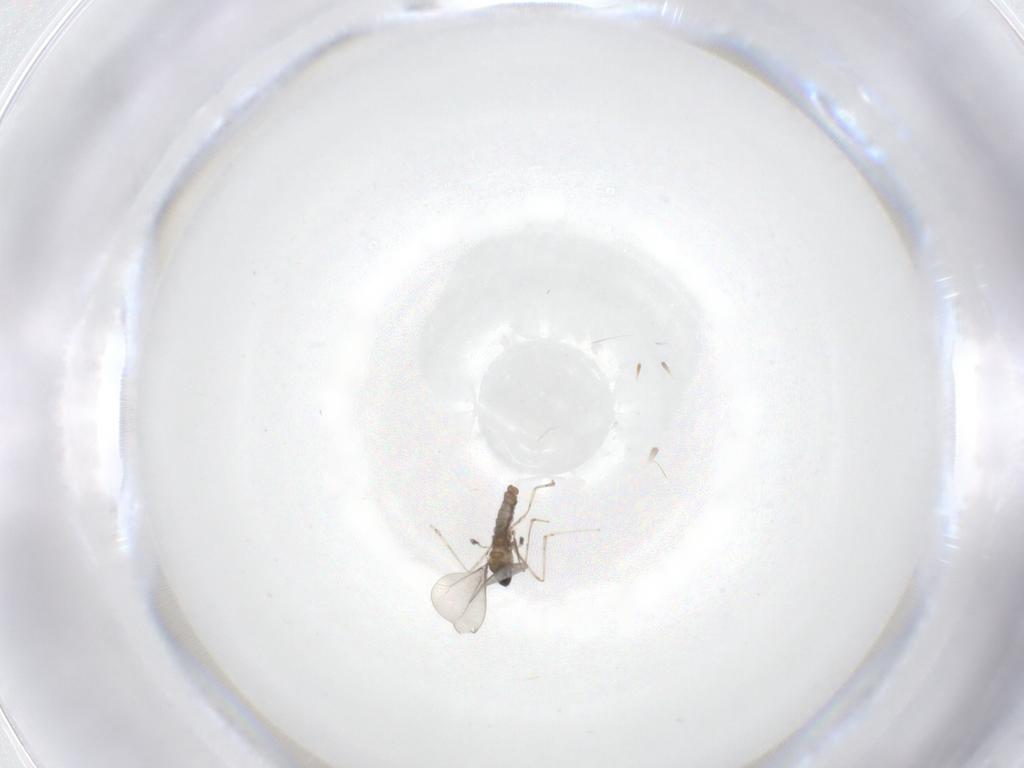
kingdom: Animalia
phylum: Arthropoda
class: Insecta
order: Diptera
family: Cecidomyiidae
